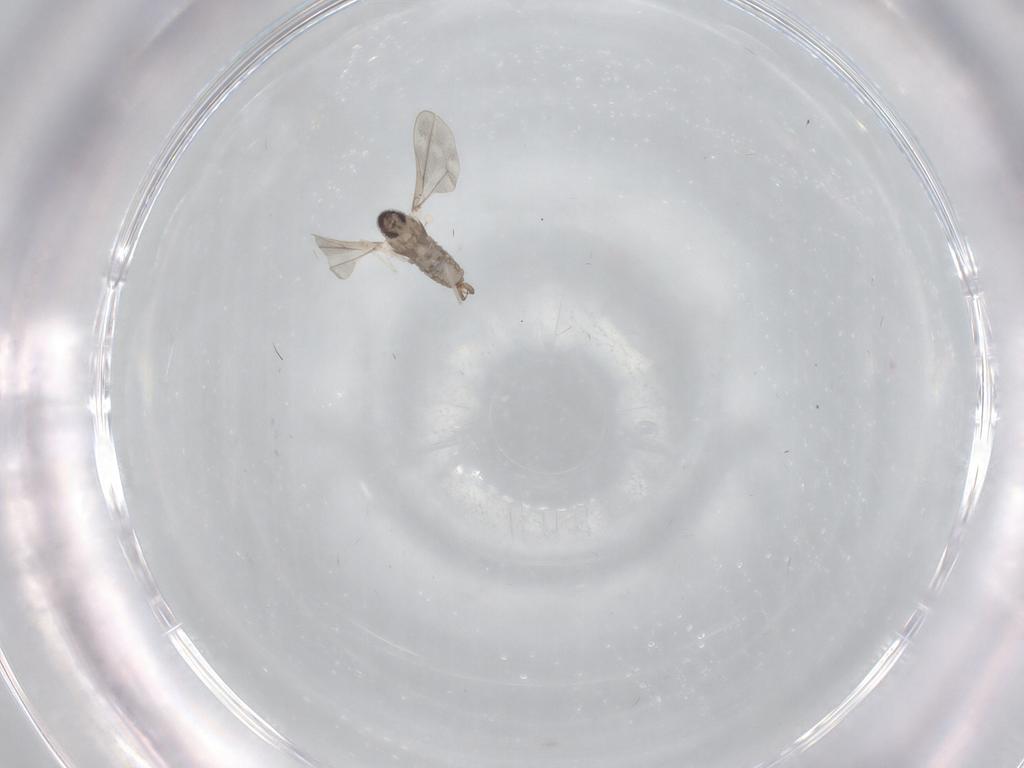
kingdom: Animalia
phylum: Arthropoda
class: Insecta
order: Diptera
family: Cecidomyiidae
